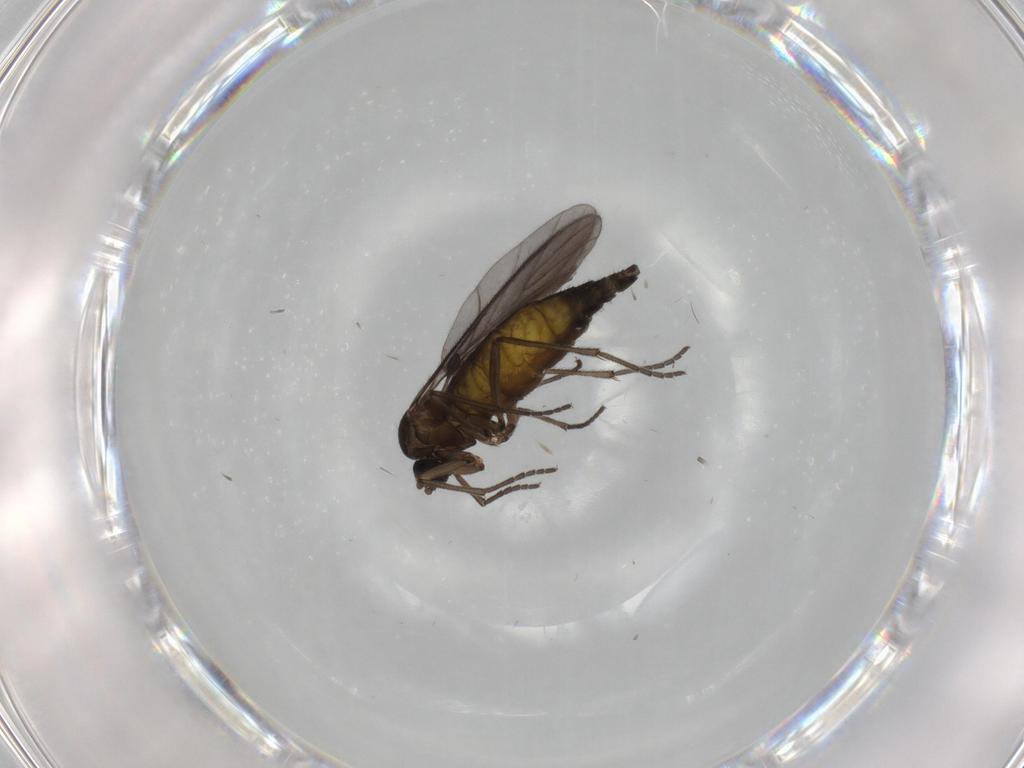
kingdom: Animalia
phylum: Arthropoda
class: Insecta
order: Diptera
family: Sciaridae
